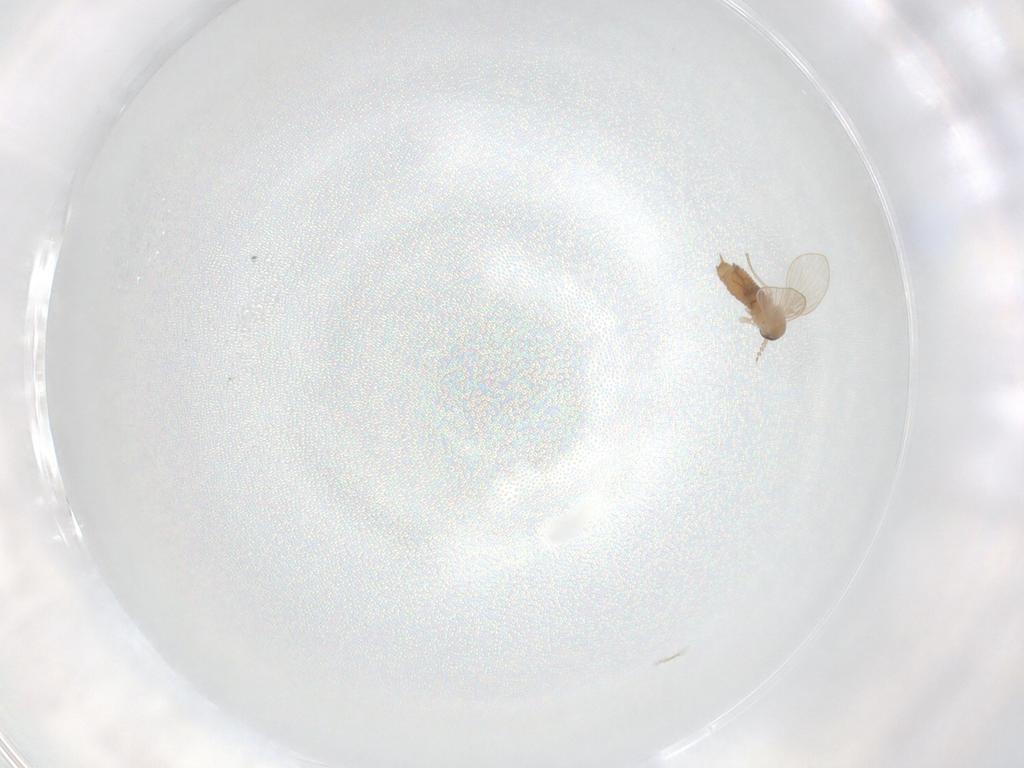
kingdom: Animalia
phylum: Arthropoda
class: Insecta
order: Diptera
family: Psychodidae
